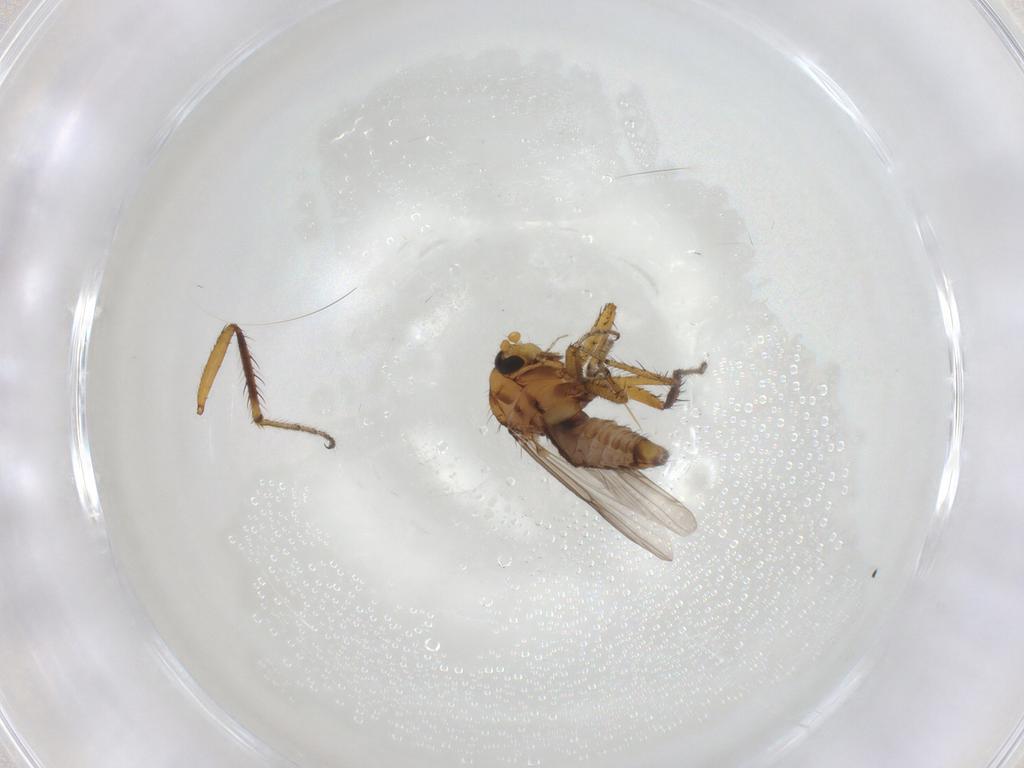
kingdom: Animalia
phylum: Arthropoda
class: Insecta
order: Diptera
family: Ceratopogonidae
